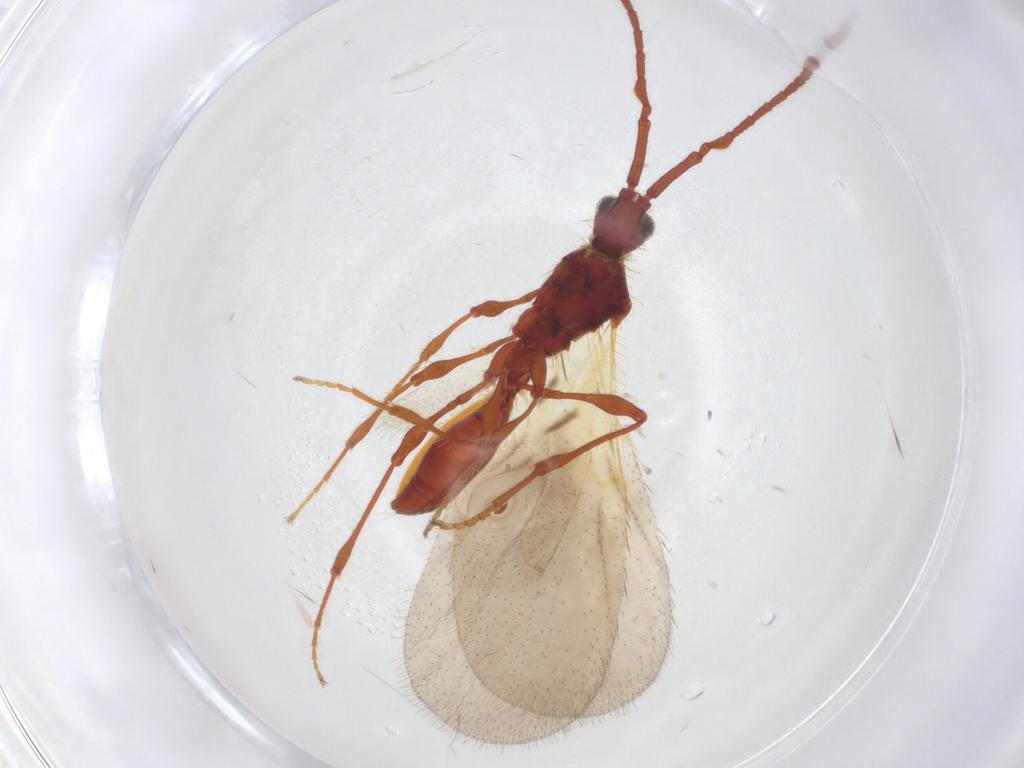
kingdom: Animalia
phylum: Arthropoda
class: Insecta
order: Hymenoptera
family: Diapriidae
